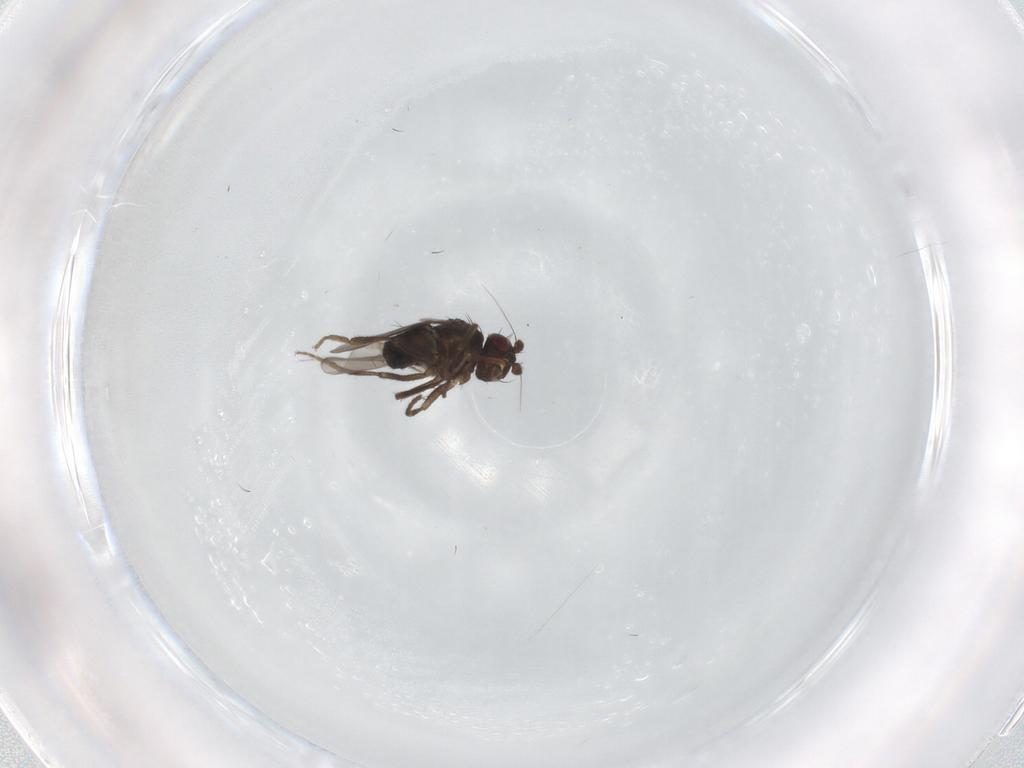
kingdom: Animalia
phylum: Arthropoda
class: Insecta
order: Diptera
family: Sphaeroceridae
